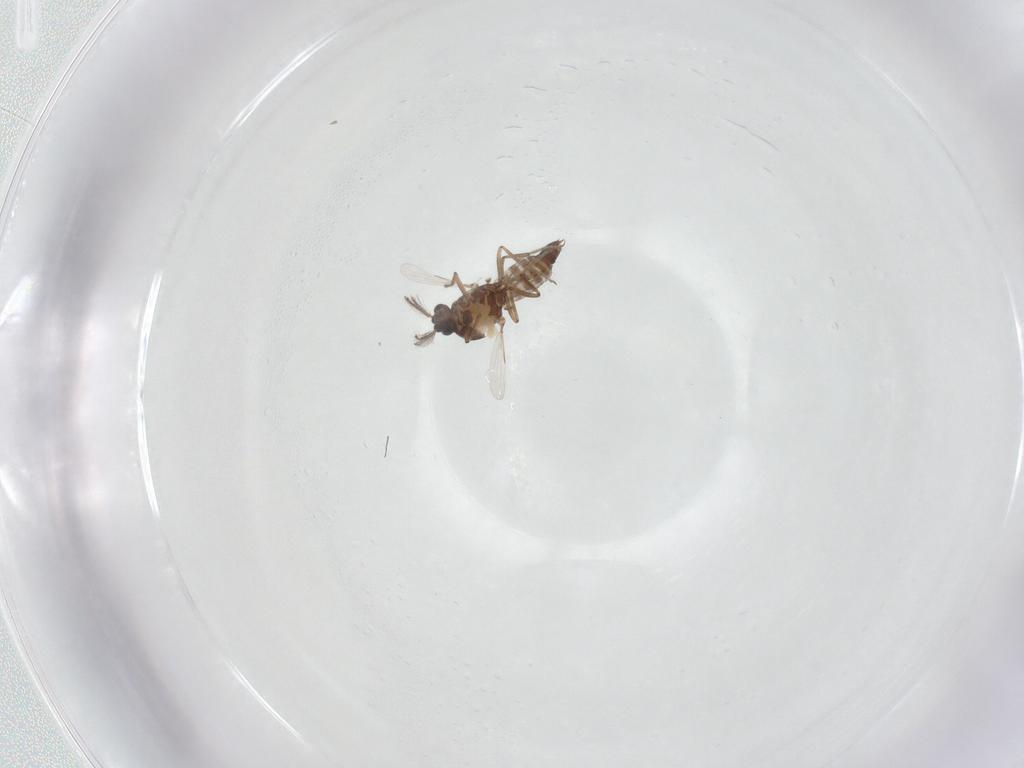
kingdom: Animalia
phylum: Arthropoda
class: Insecta
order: Diptera
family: Ceratopogonidae
